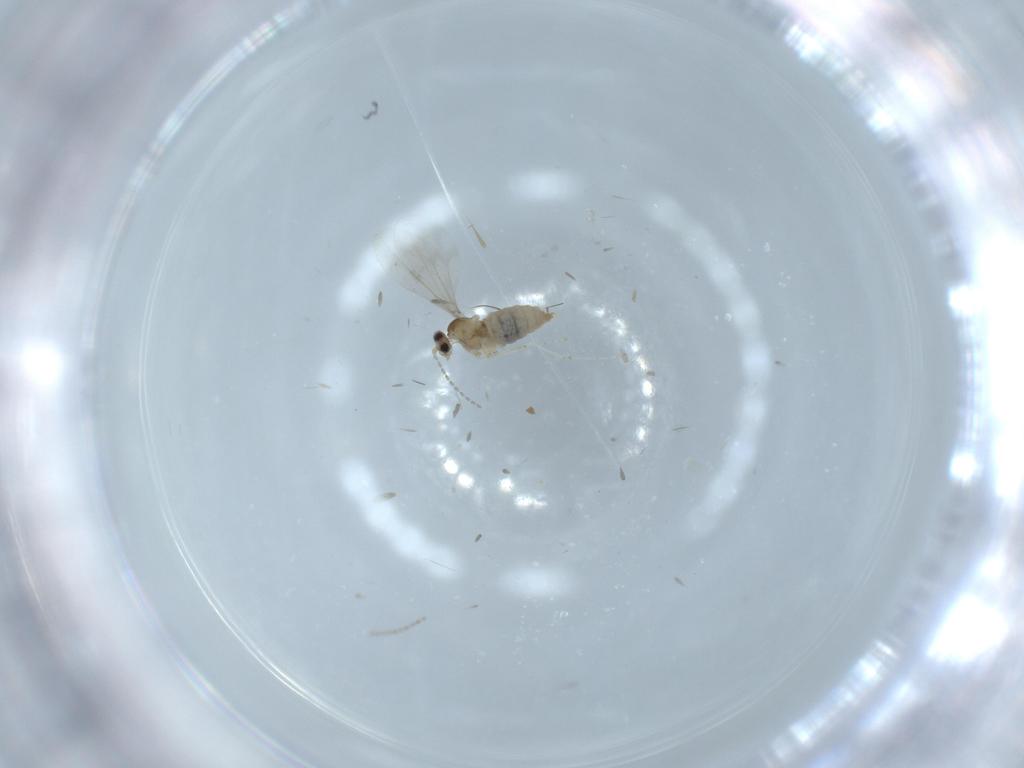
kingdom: Animalia
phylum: Arthropoda
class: Insecta
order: Diptera
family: Cecidomyiidae
